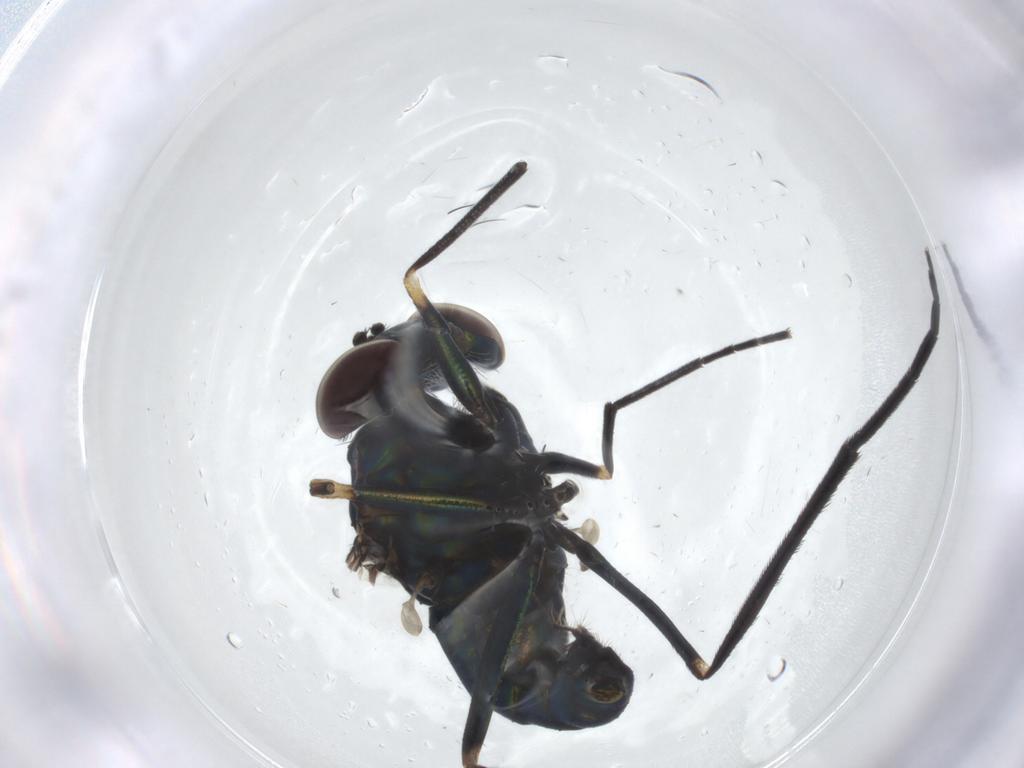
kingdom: Animalia
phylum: Arthropoda
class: Insecta
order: Diptera
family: Dolichopodidae
